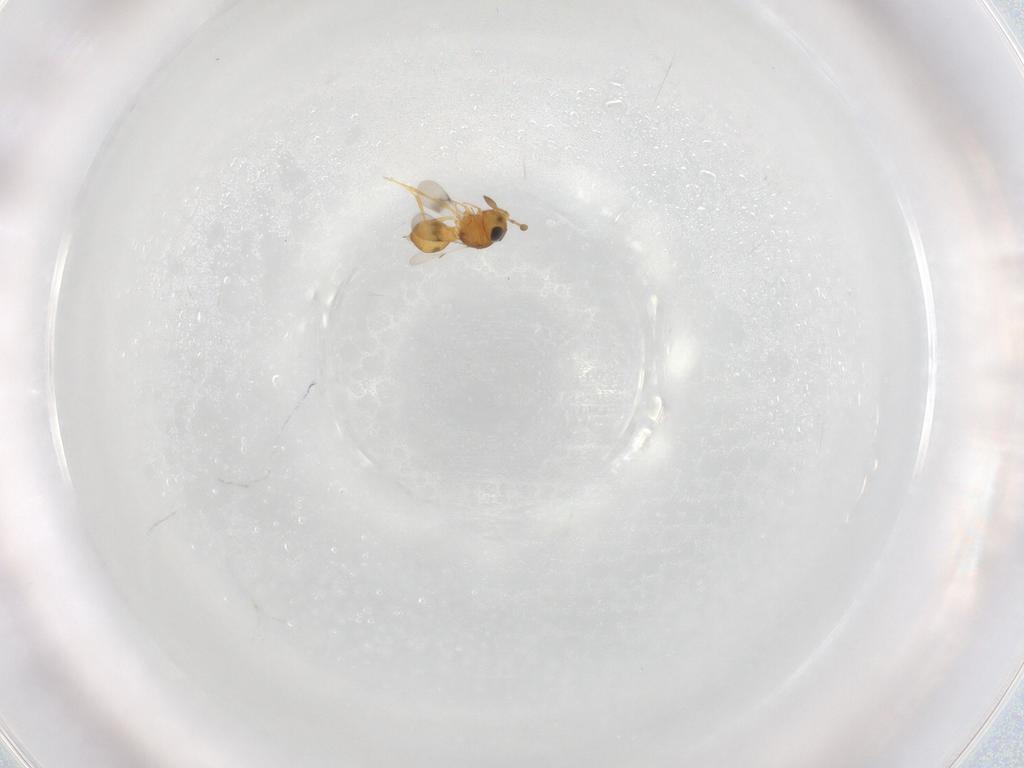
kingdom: Animalia
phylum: Arthropoda
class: Insecta
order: Hymenoptera
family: Scelionidae
